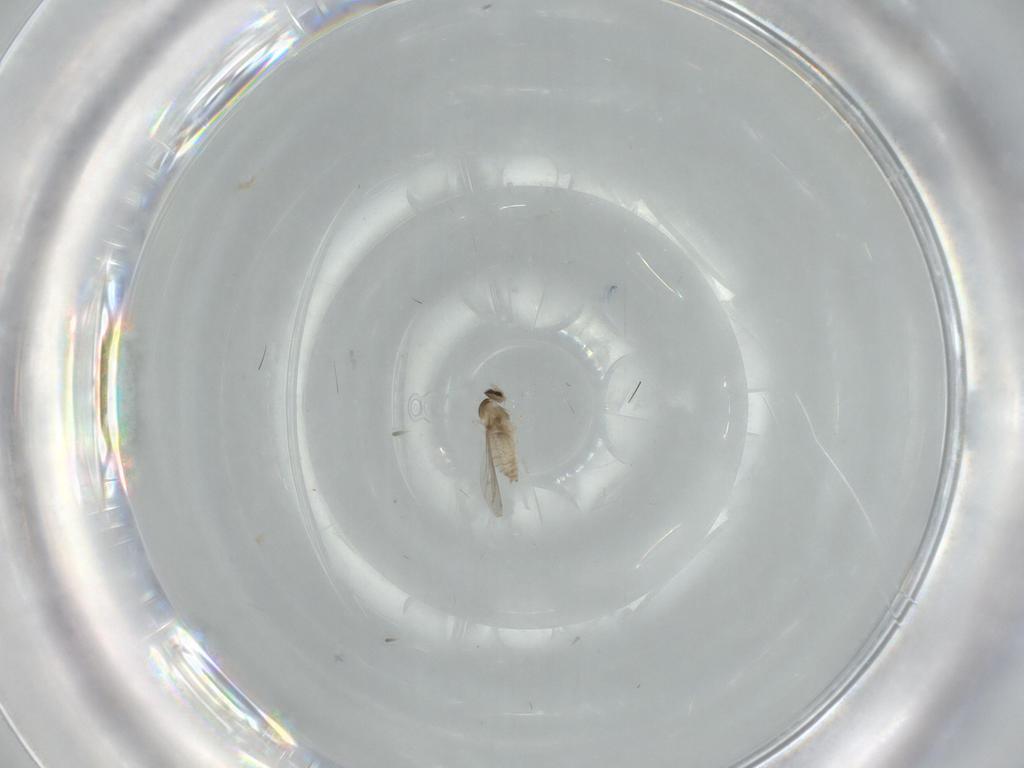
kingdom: Animalia
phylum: Arthropoda
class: Insecta
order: Diptera
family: Cecidomyiidae
